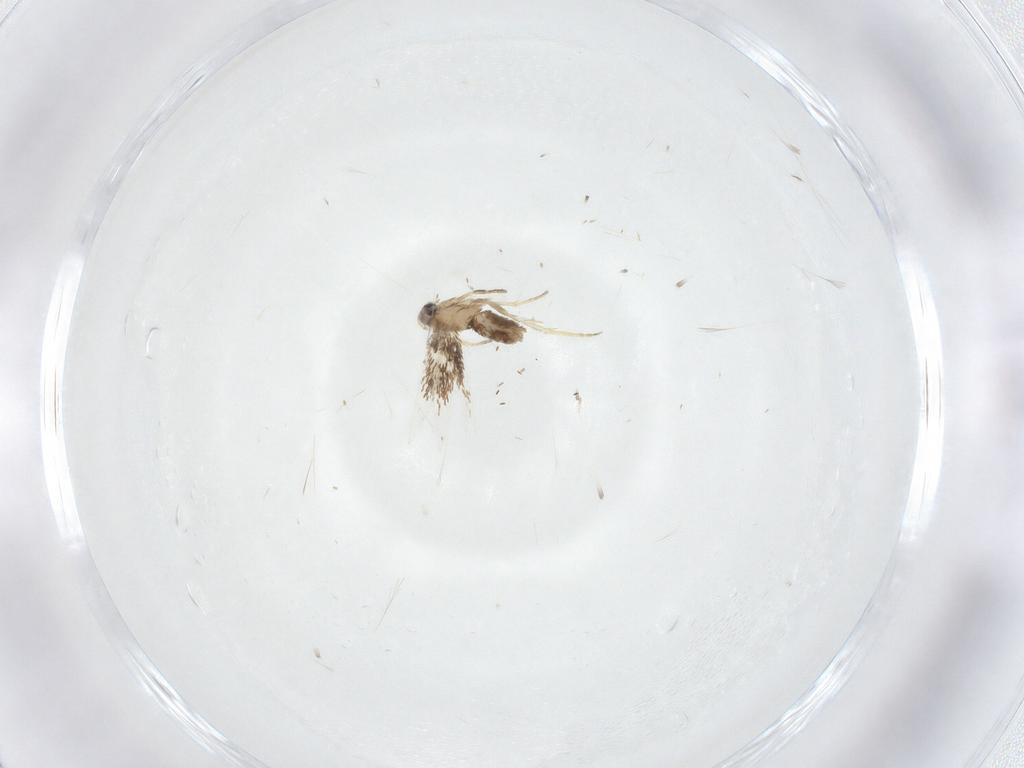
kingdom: Animalia
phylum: Arthropoda
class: Insecta
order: Lepidoptera
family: Nepticulidae
